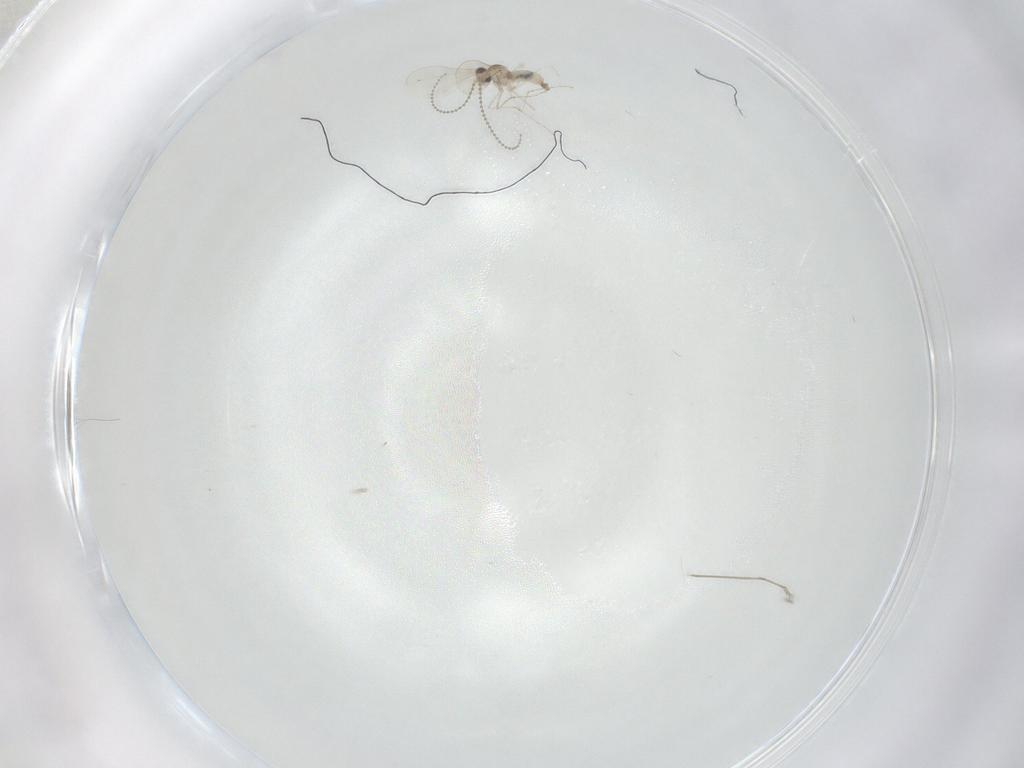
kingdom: Animalia
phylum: Arthropoda
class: Insecta
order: Diptera
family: Cecidomyiidae
